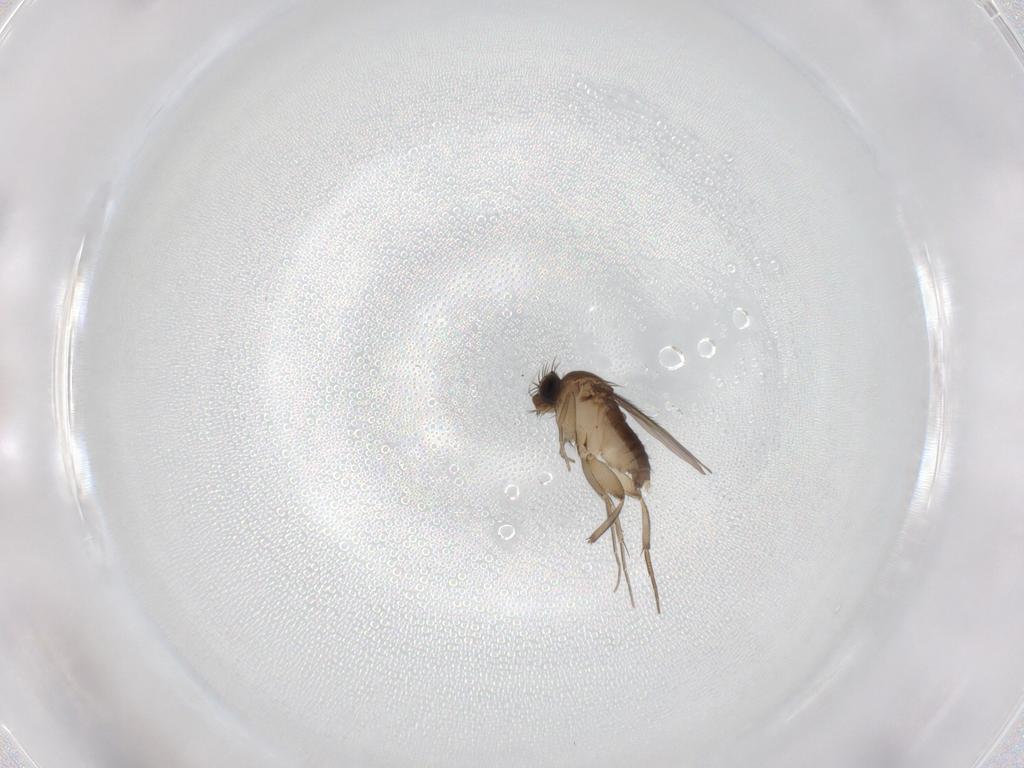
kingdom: Animalia
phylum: Arthropoda
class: Insecta
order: Diptera
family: Phoridae
